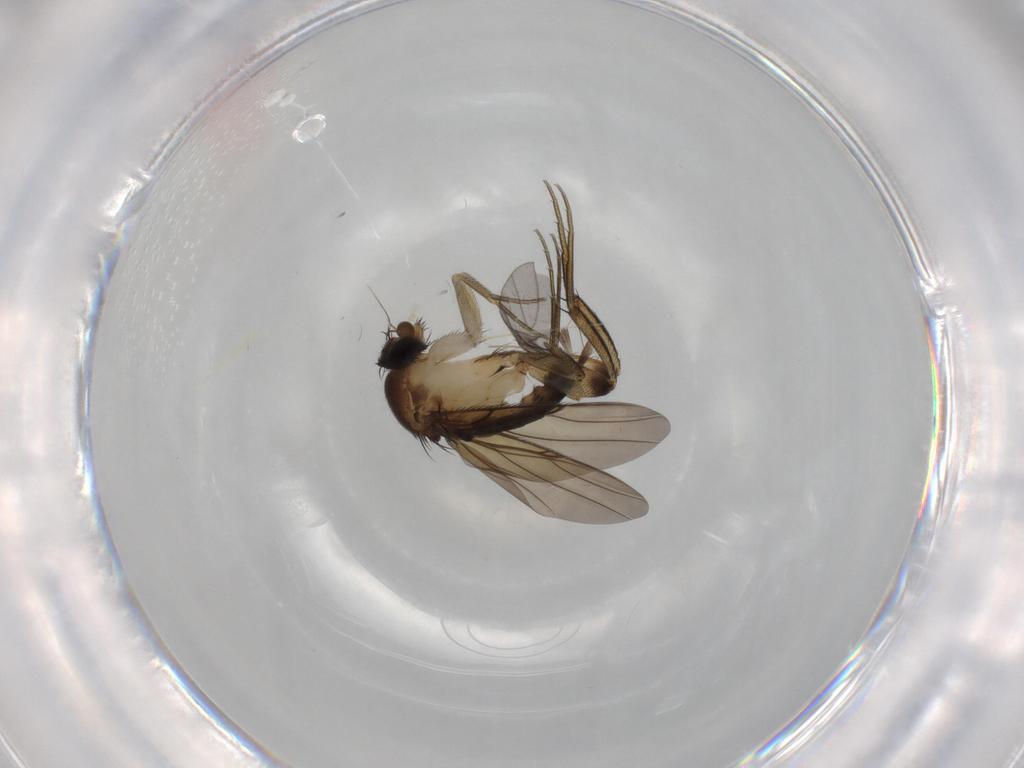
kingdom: Animalia
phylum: Arthropoda
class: Insecta
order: Diptera
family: Phoridae
